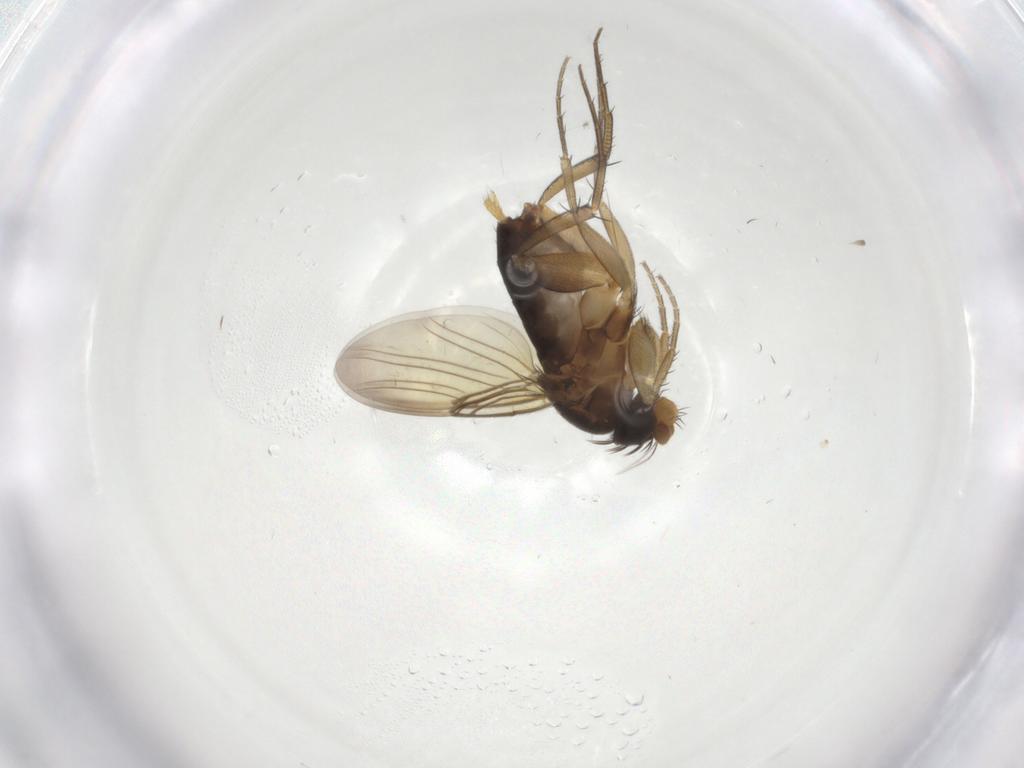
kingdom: Animalia
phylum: Arthropoda
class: Insecta
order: Diptera
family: Phoridae
